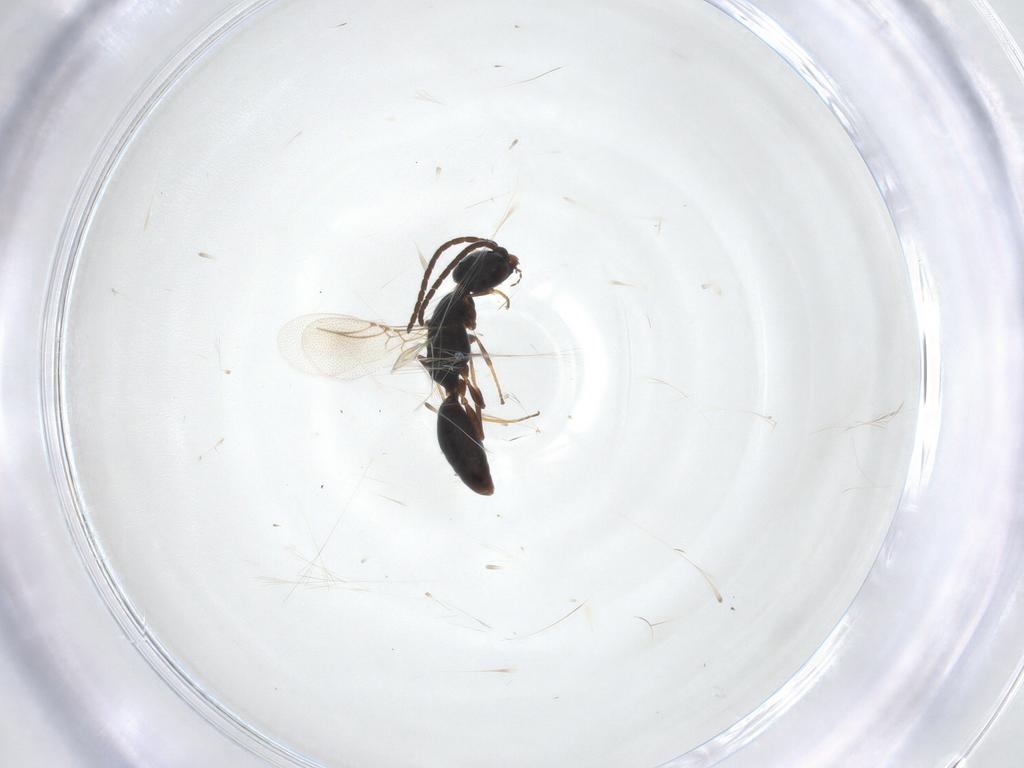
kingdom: Animalia
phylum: Arthropoda
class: Insecta
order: Hymenoptera
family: Bethylidae
